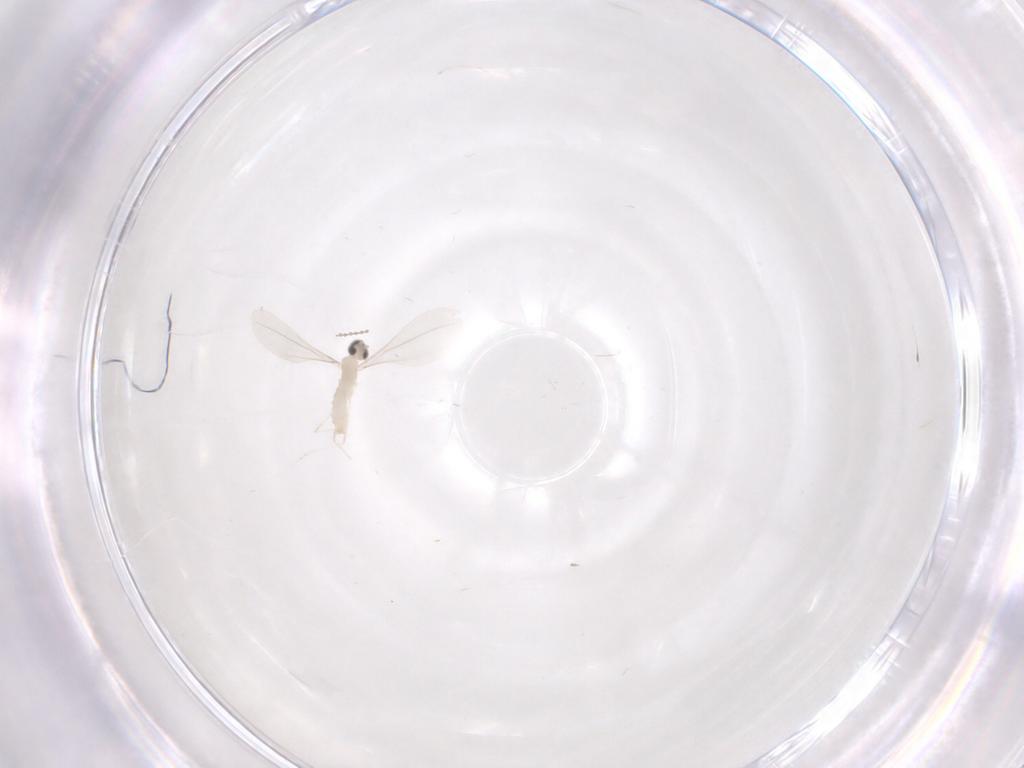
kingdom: Animalia
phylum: Arthropoda
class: Insecta
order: Diptera
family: Cecidomyiidae
